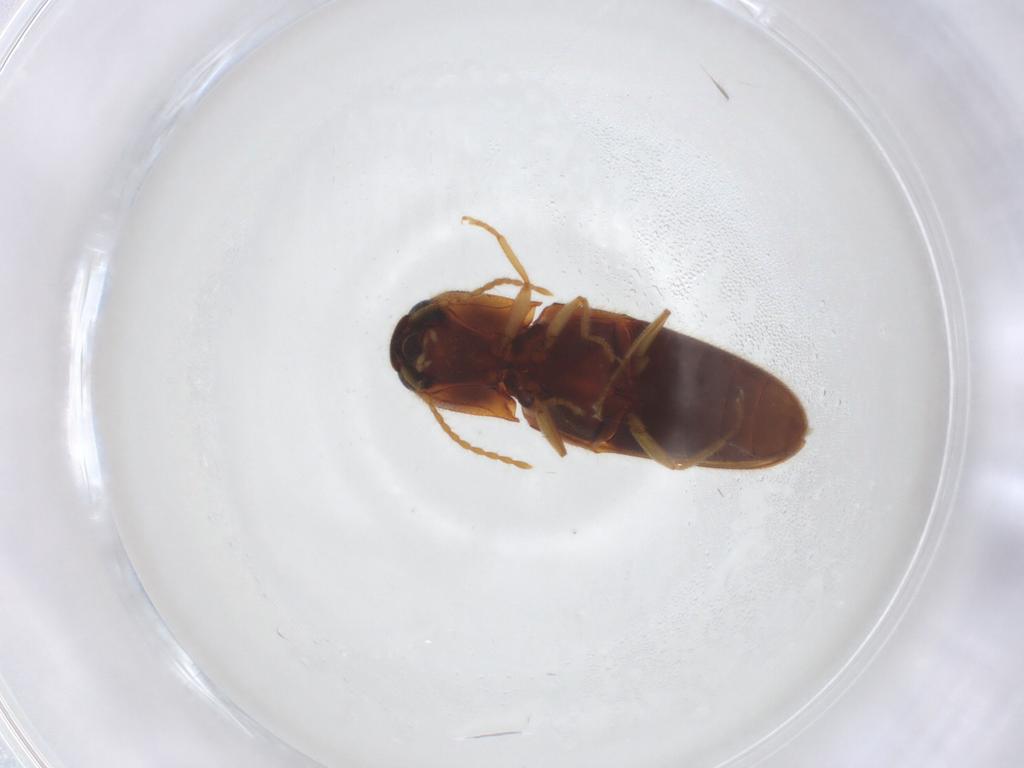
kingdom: Animalia
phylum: Arthropoda
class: Insecta
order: Coleoptera
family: Elateridae
